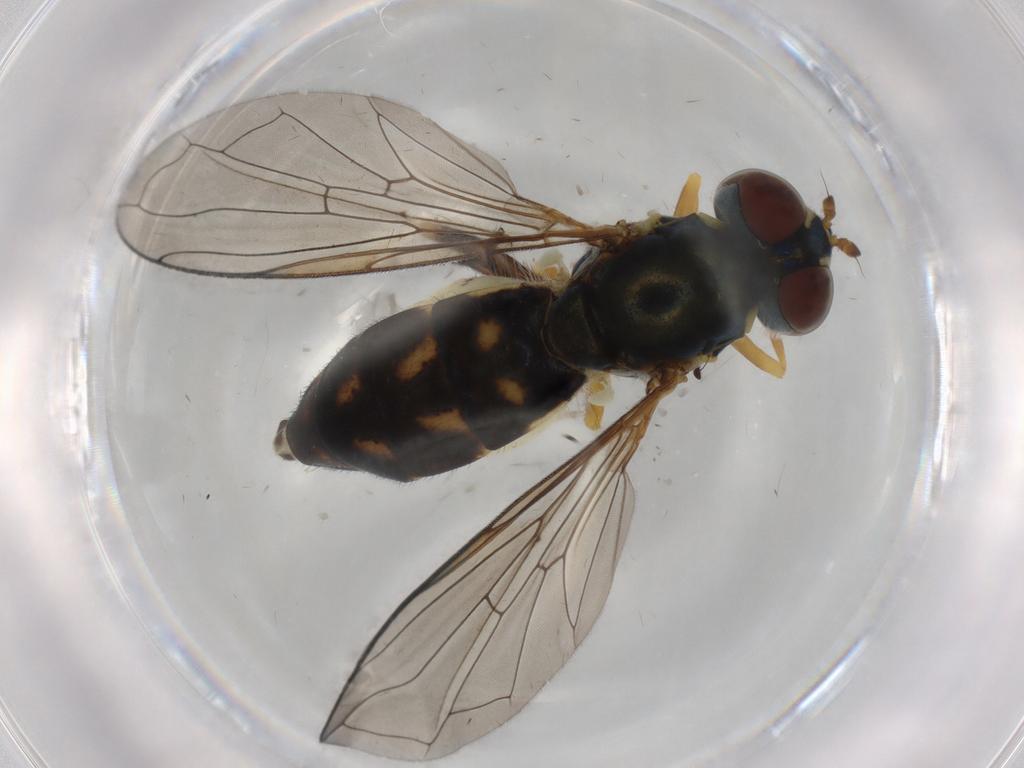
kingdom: Animalia
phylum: Arthropoda
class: Insecta
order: Diptera
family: Syrphidae
